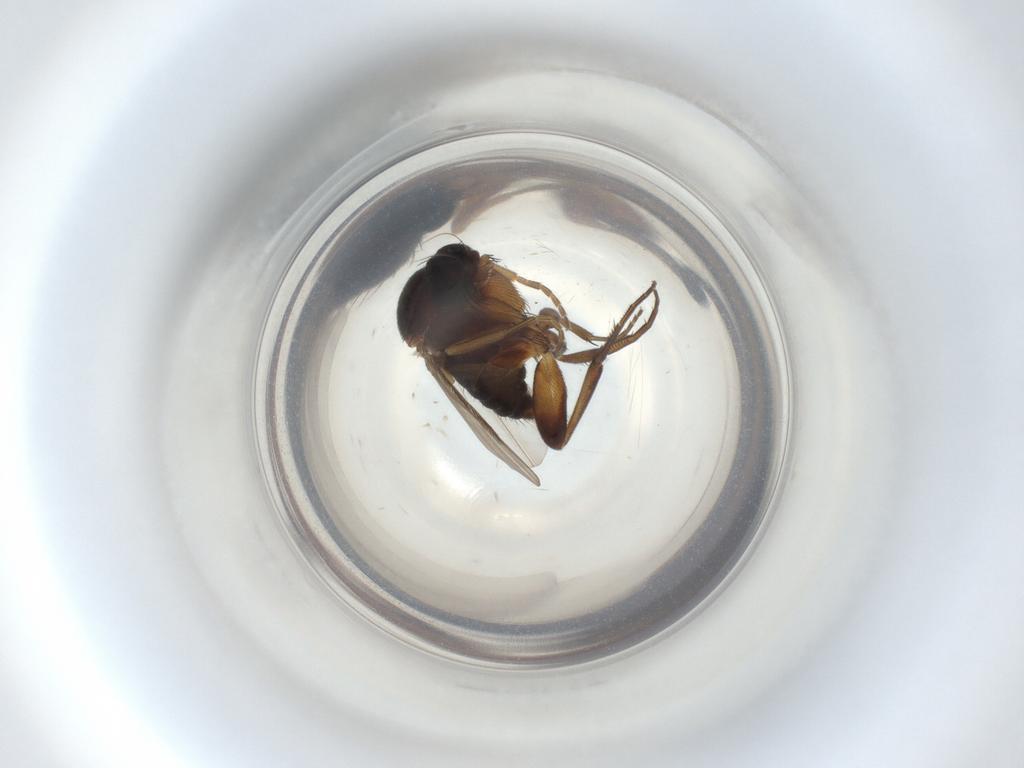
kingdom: Animalia
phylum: Arthropoda
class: Insecta
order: Diptera
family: Phoridae
